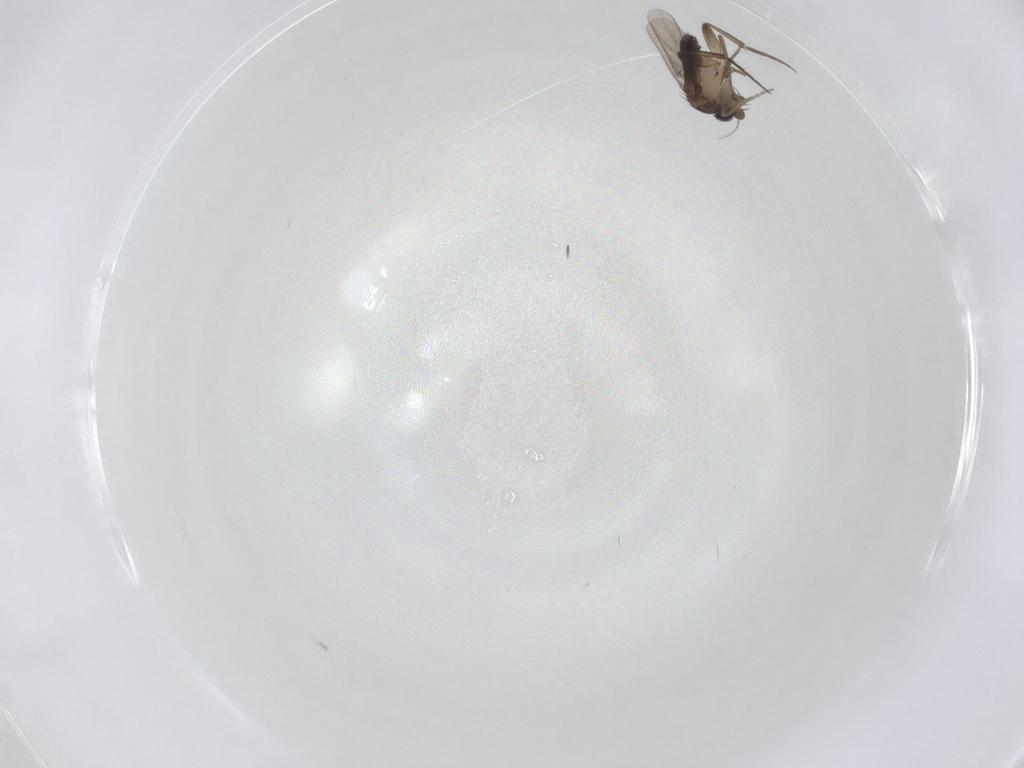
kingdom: Animalia
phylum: Arthropoda
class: Insecta
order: Diptera
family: Phoridae
